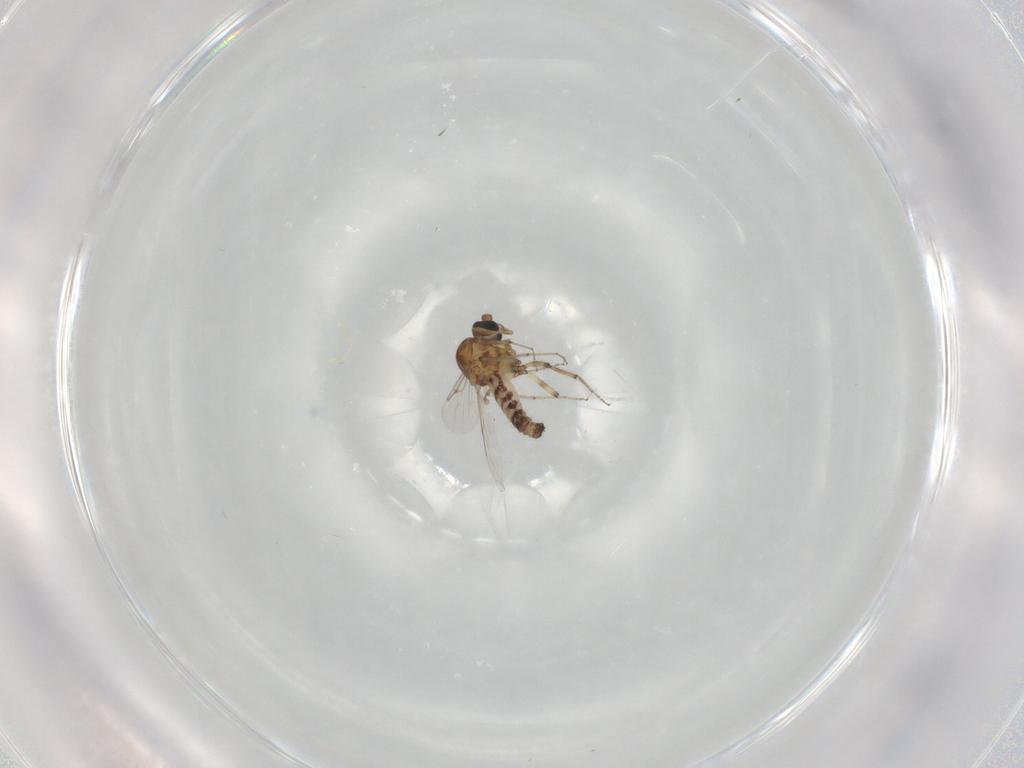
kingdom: Animalia
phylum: Arthropoda
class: Insecta
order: Diptera
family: Ceratopogonidae
